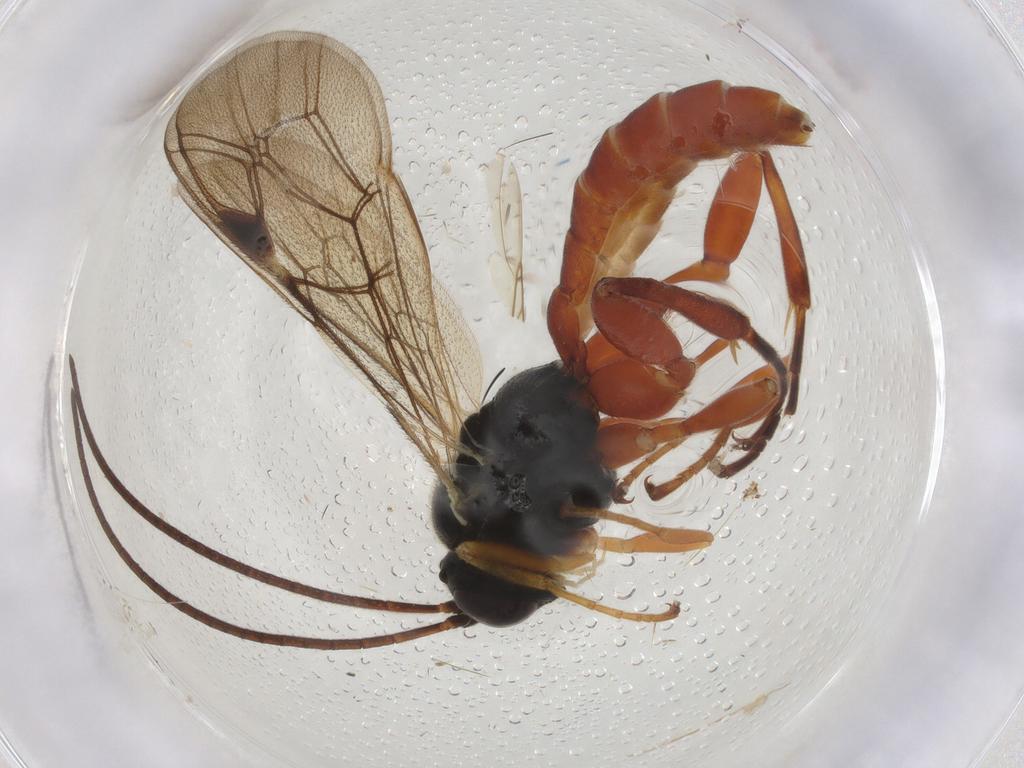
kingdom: Animalia
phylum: Arthropoda
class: Insecta
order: Hymenoptera
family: Ichneumonidae
